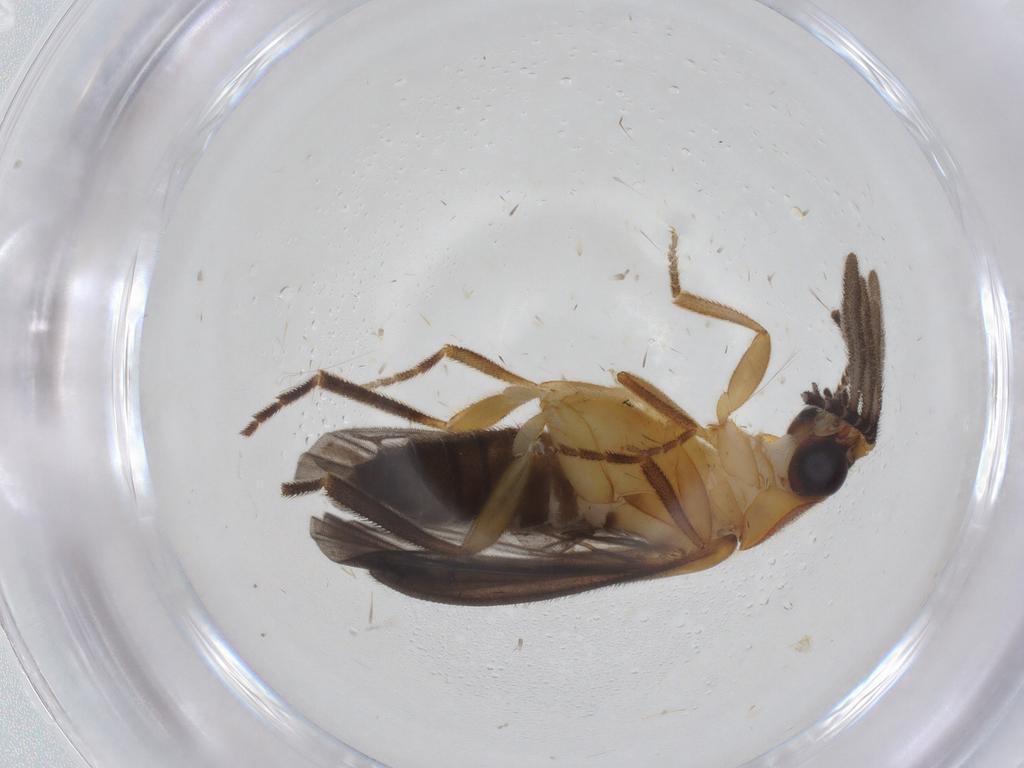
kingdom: Animalia
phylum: Arthropoda
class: Insecta
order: Coleoptera
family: Lampyridae
